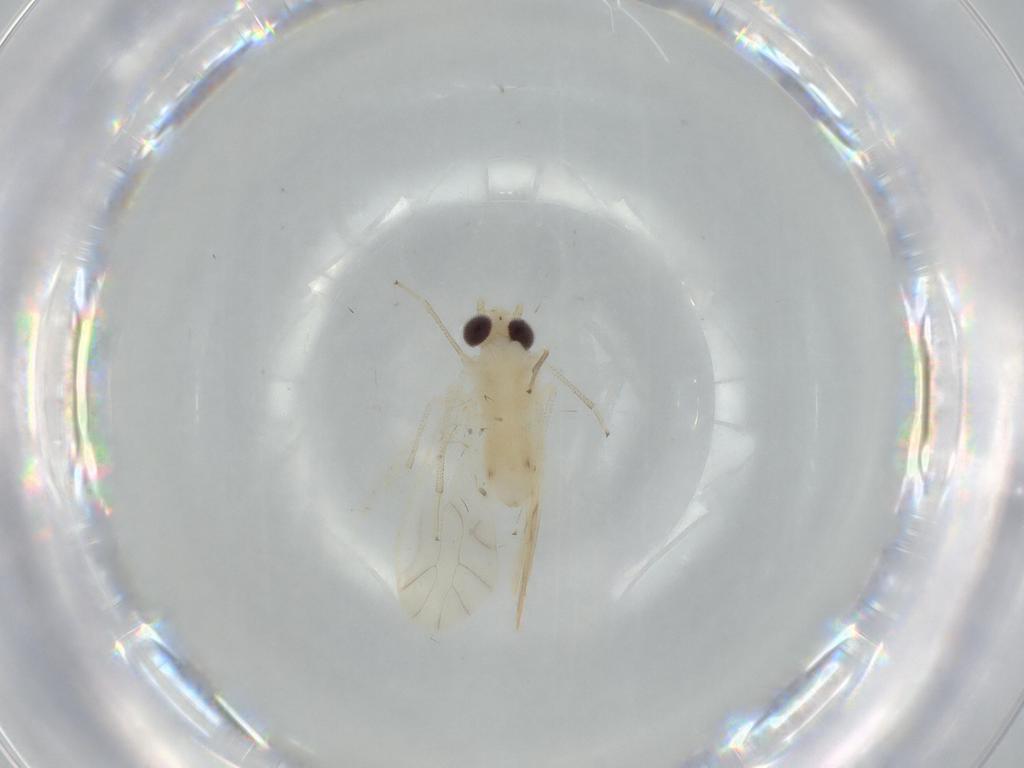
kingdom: Animalia
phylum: Arthropoda
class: Insecta
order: Psocodea
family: Caeciliusidae
